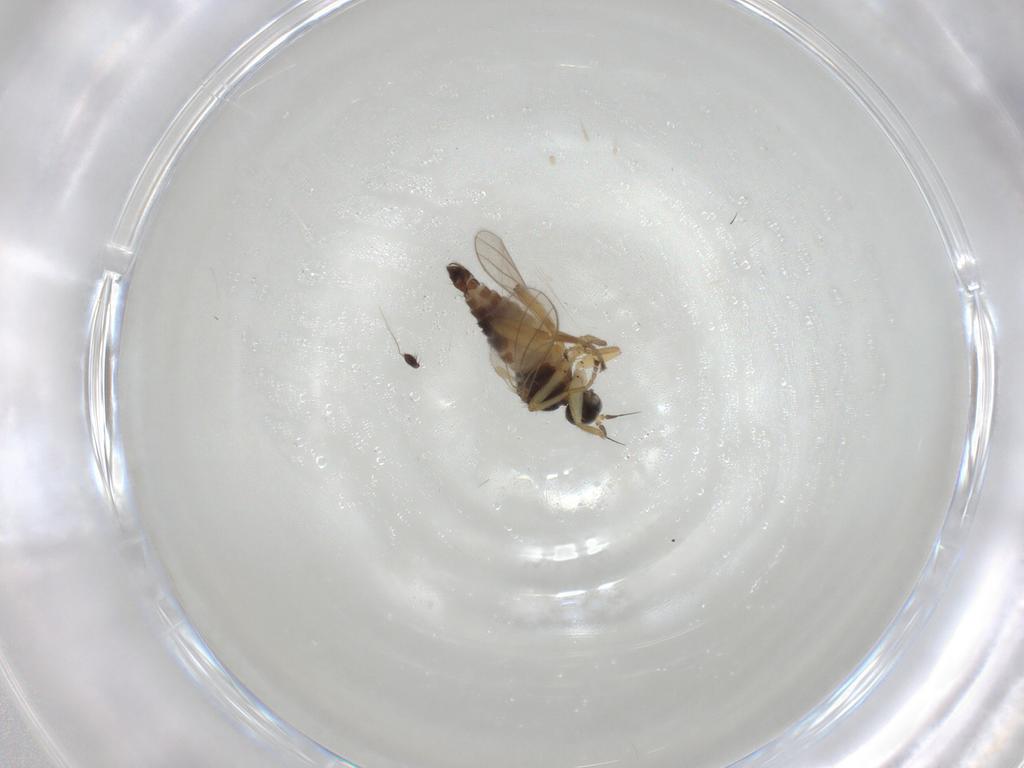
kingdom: Animalia
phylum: Arthropoda
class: Insecta
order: Diptera
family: Hybotidae
